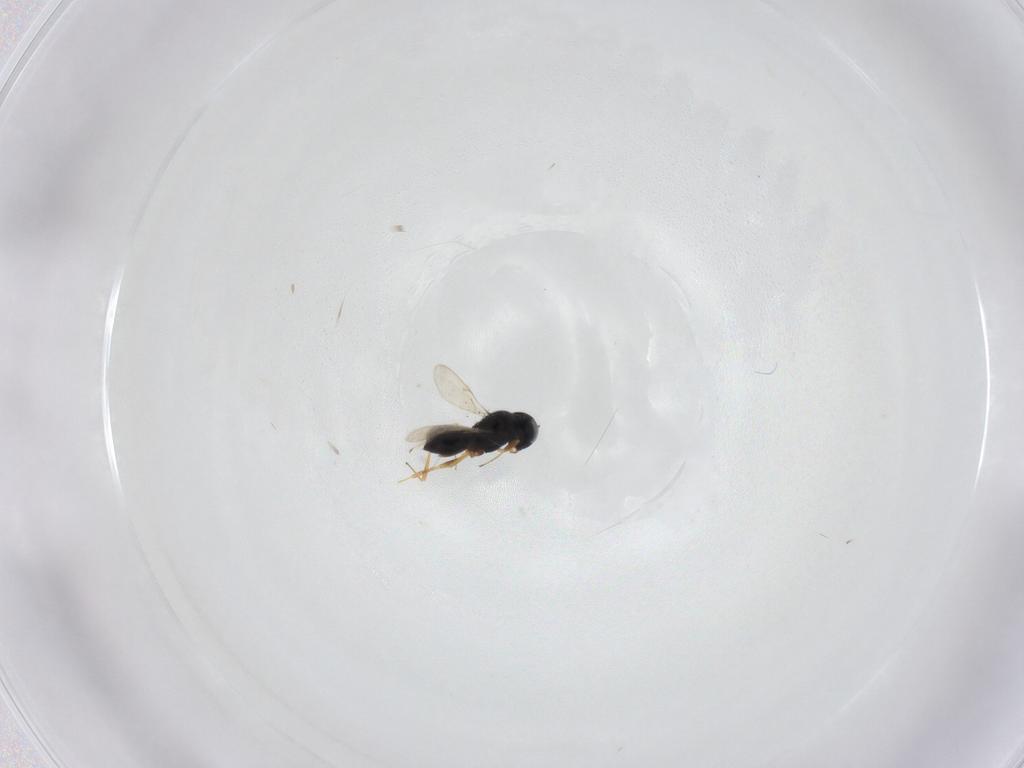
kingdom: Animalia
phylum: Arthropoda
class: Insecta
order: Hymenoptera
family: Scelionidae
